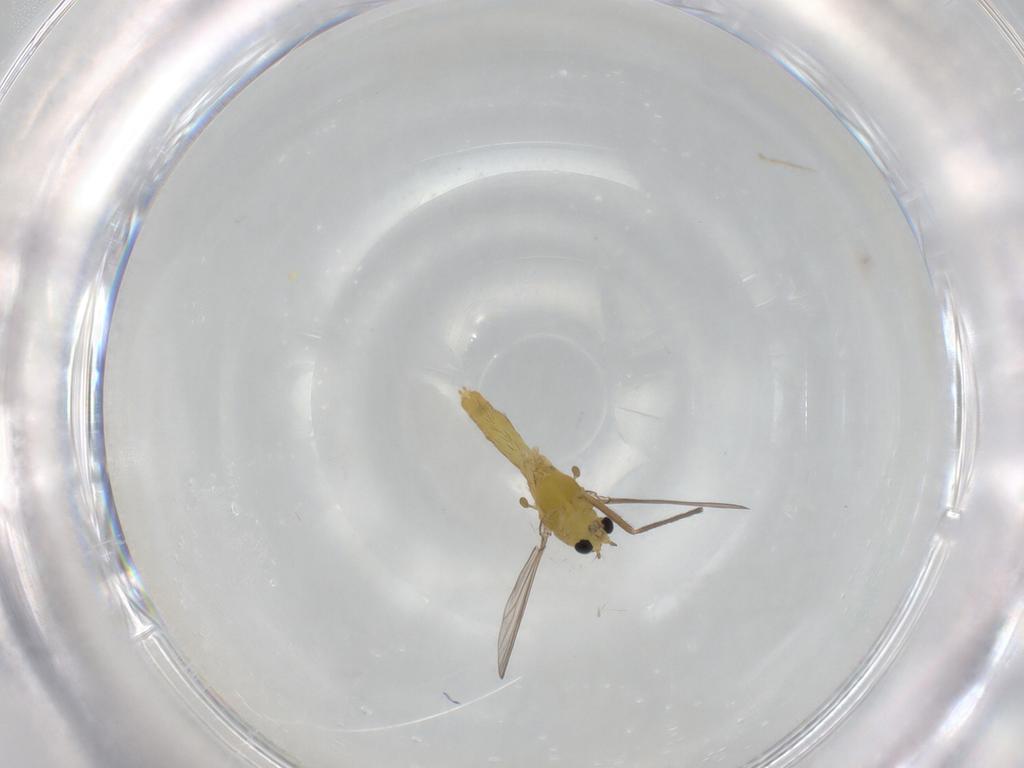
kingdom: Animalia
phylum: Arthropoda
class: Insecta
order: Diptera
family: Chironomidae
